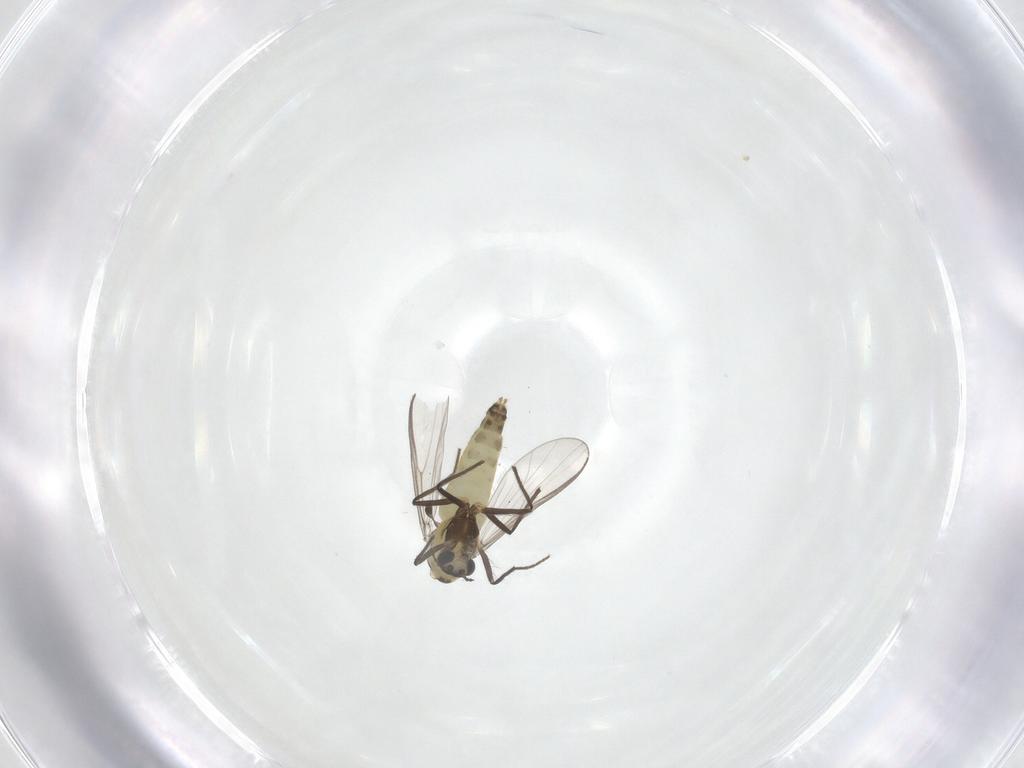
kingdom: Animalia
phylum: Arthropoda
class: Insecta
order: Diptera
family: Chironomidae
